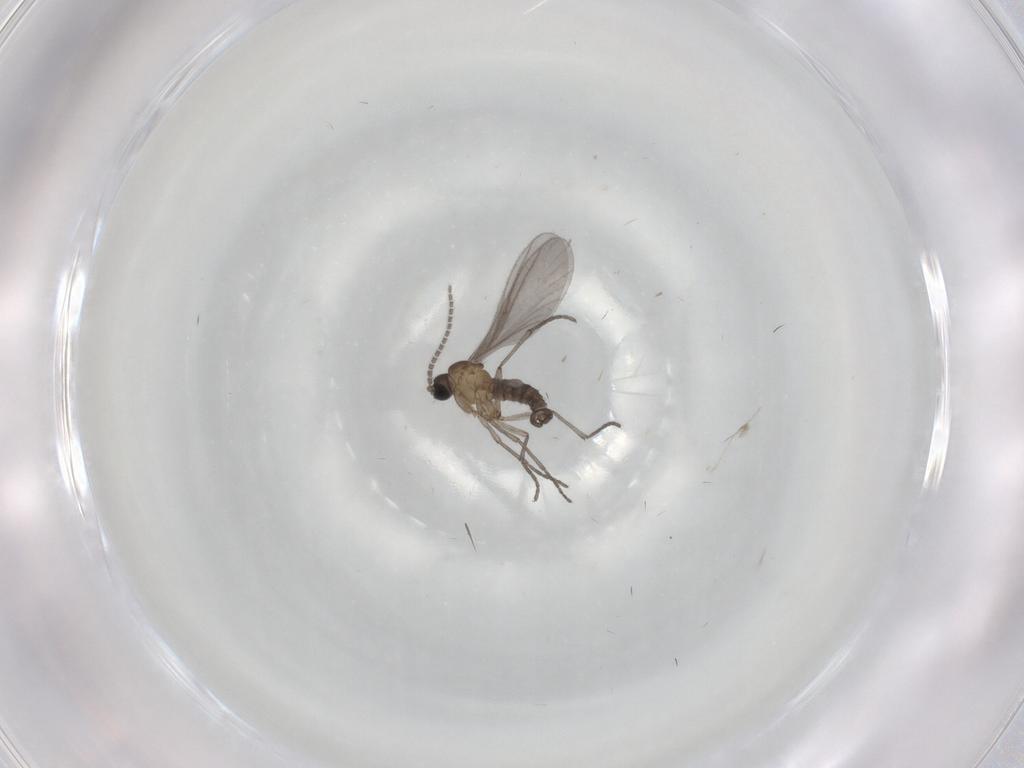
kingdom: Animalia
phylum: Arthropoda
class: Insecta
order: Diptera
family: Sciaridae
